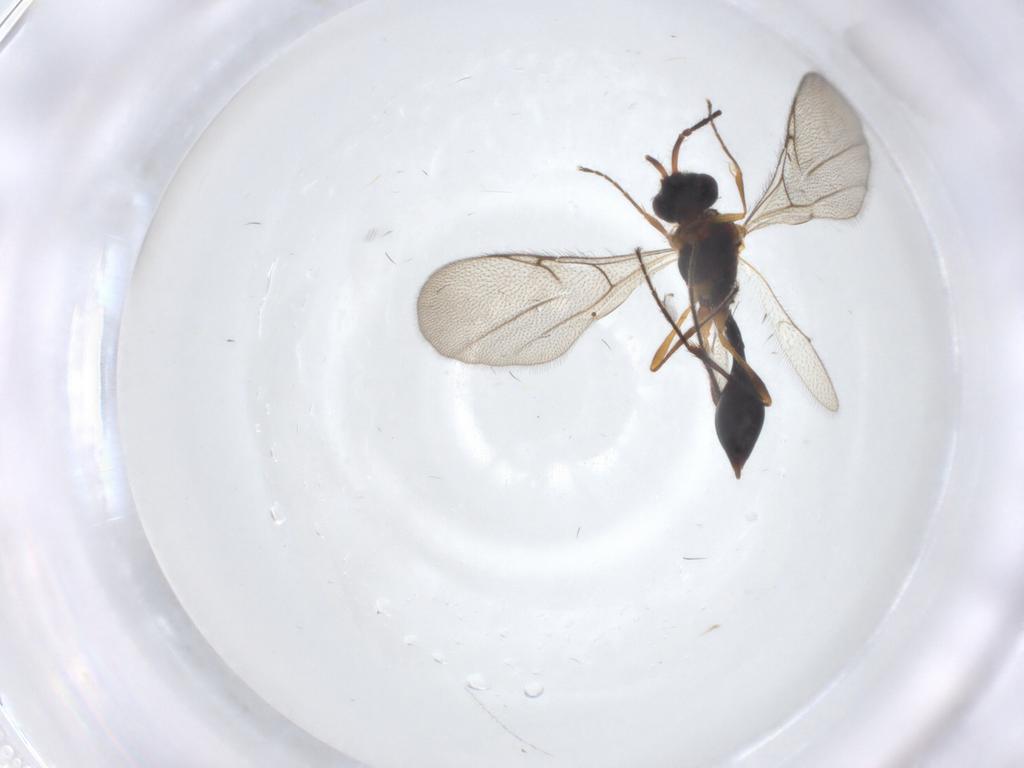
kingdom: Animalia
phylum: Arthropoda
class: Insecta
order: Hymenoptera
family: Diapriidae
